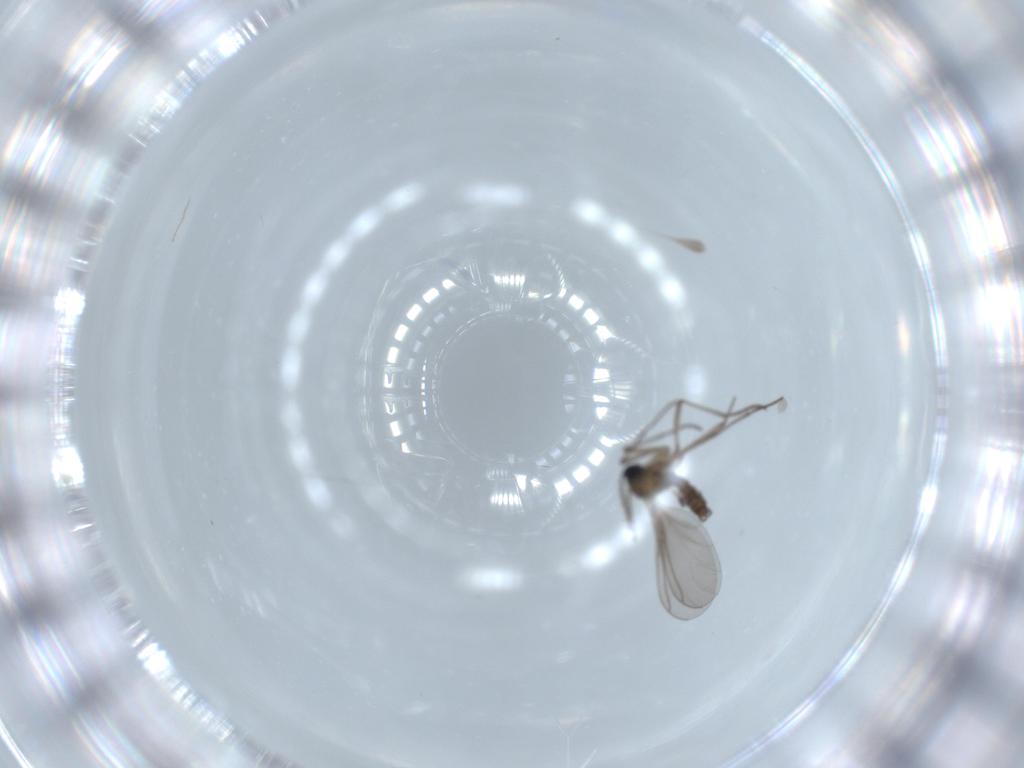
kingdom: Animalia
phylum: Arthropoda
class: Insecta
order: Diptera
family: Sciaridae
